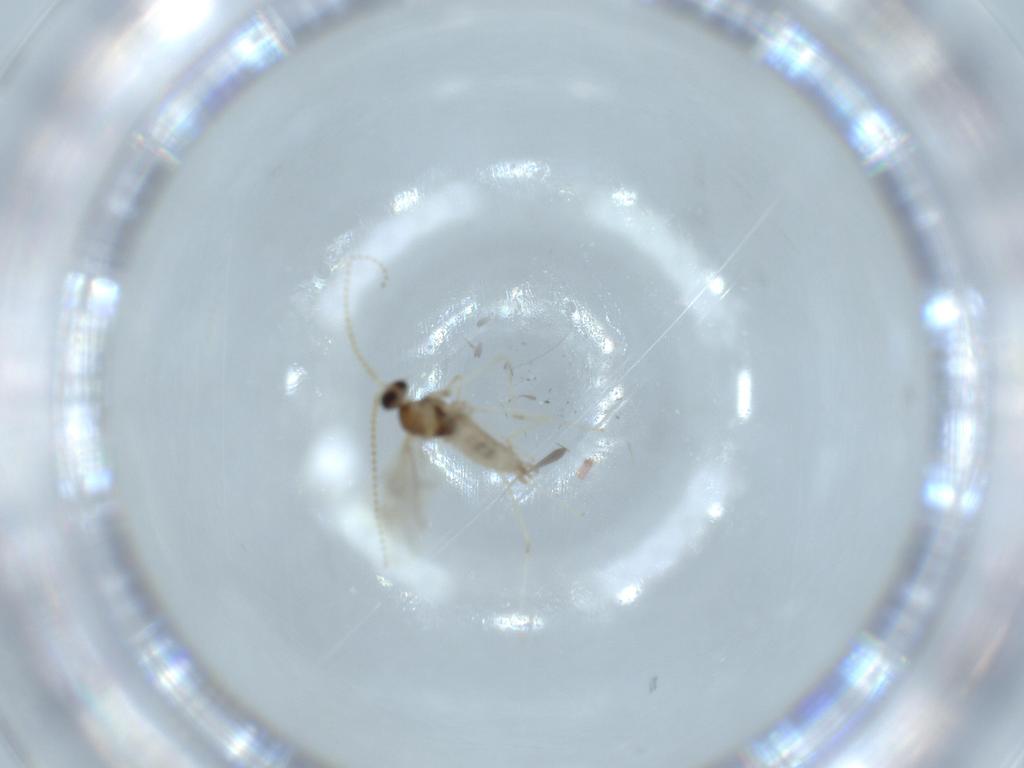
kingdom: Animalia
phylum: Arthropoda
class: Insecta
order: Diptera
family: Cecidomyiidae
